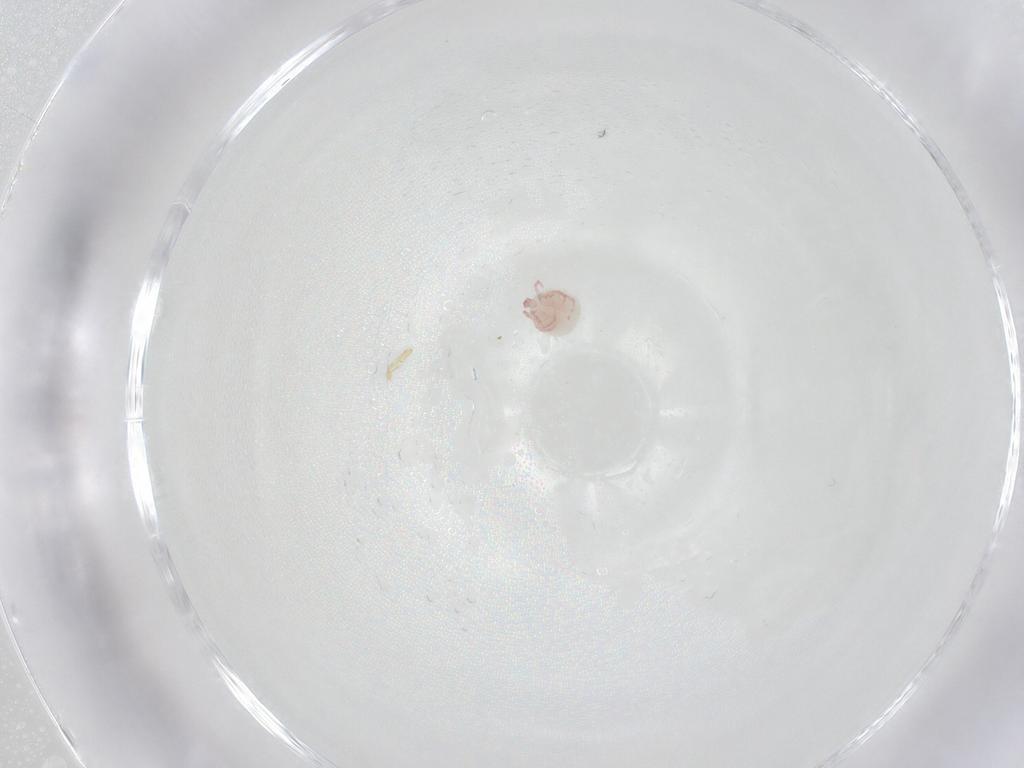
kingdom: Animalia
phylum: Arthropoda
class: Arachnida
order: Trombidiformes
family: Pionidae
